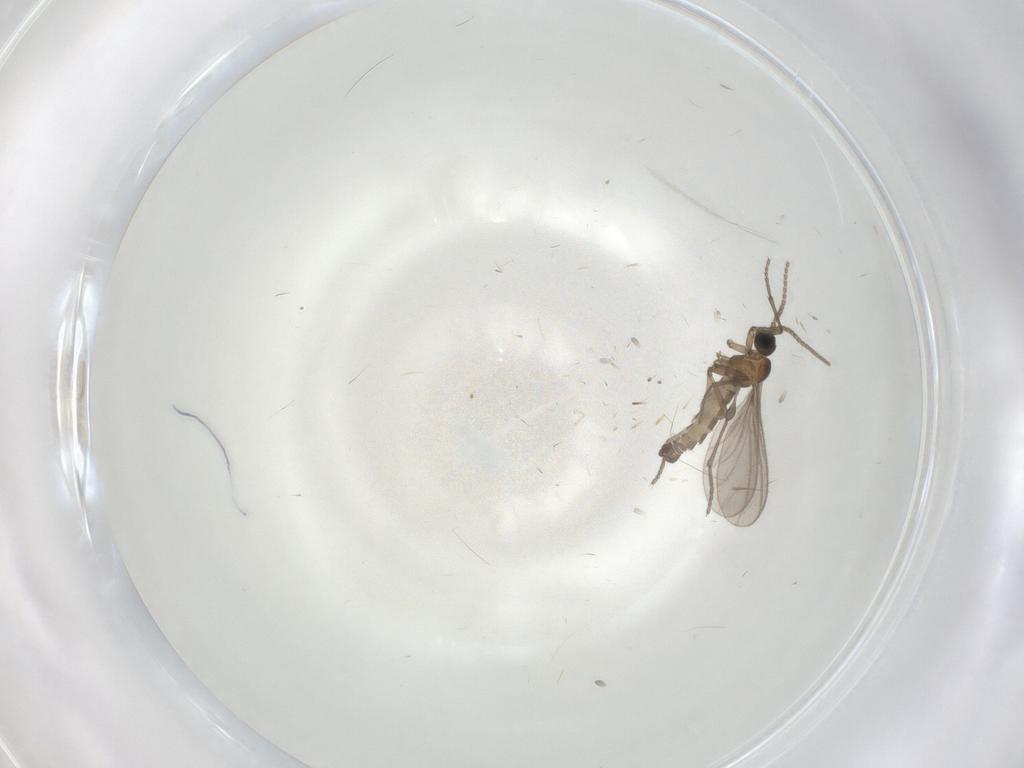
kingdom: Animalia
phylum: Arthropoda
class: Insecta
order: Diptera
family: Sciaridae
